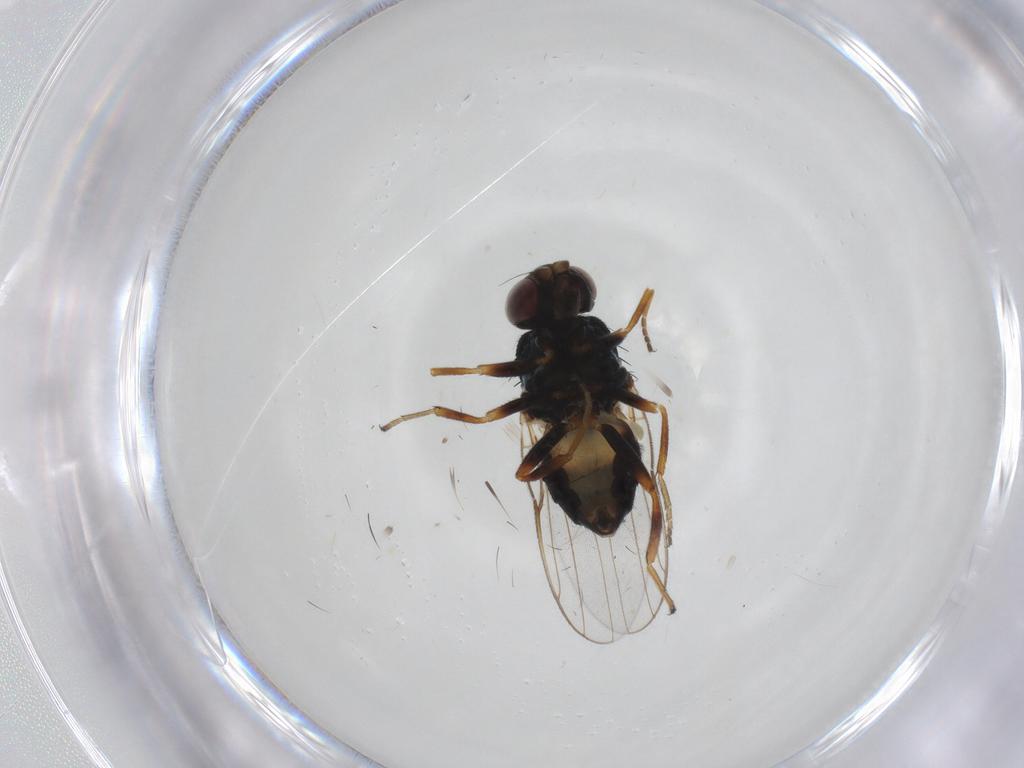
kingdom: Animalia
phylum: Arthropoda
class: Insecta
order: Diptera
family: Chloropidae
